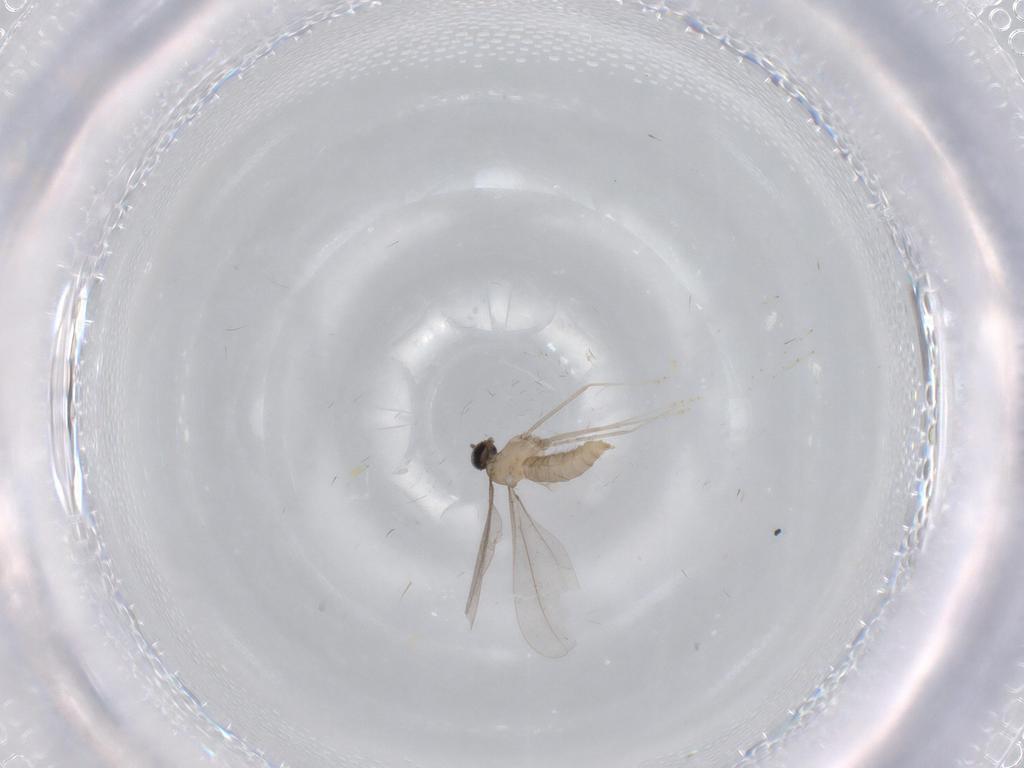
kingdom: Animalia
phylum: Arthropoda
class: Insecta
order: Diptera
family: Cecidomyiidae
